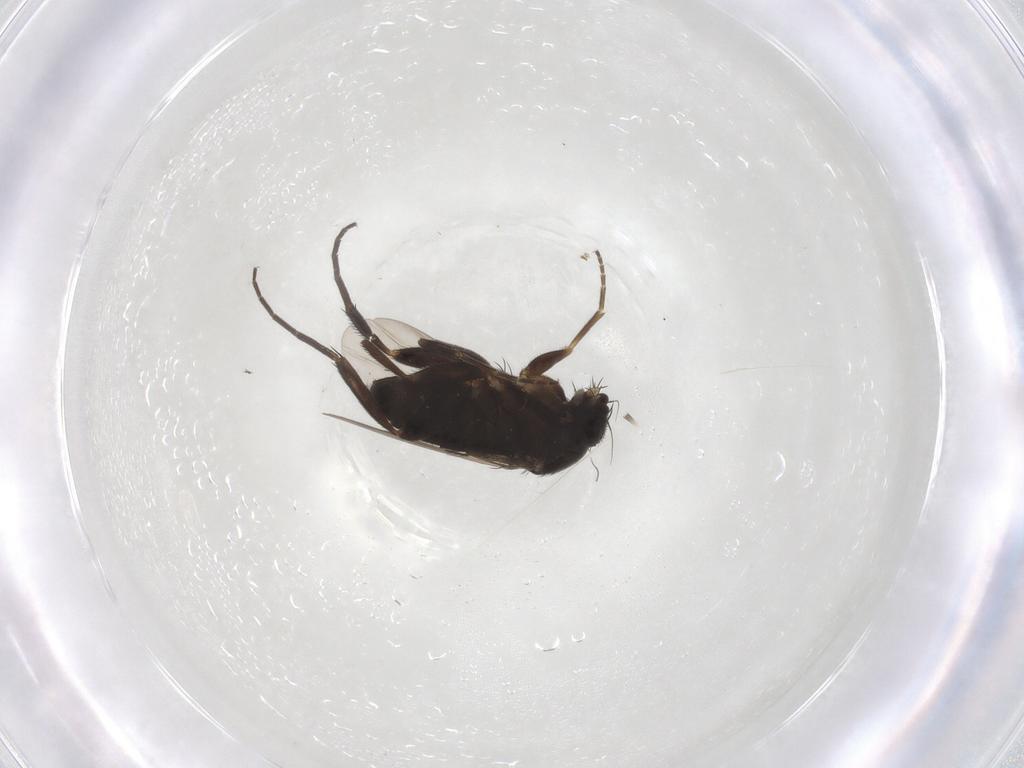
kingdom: Animalia
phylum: Arthropoda
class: Insecta
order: Diptera
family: Phoridae
